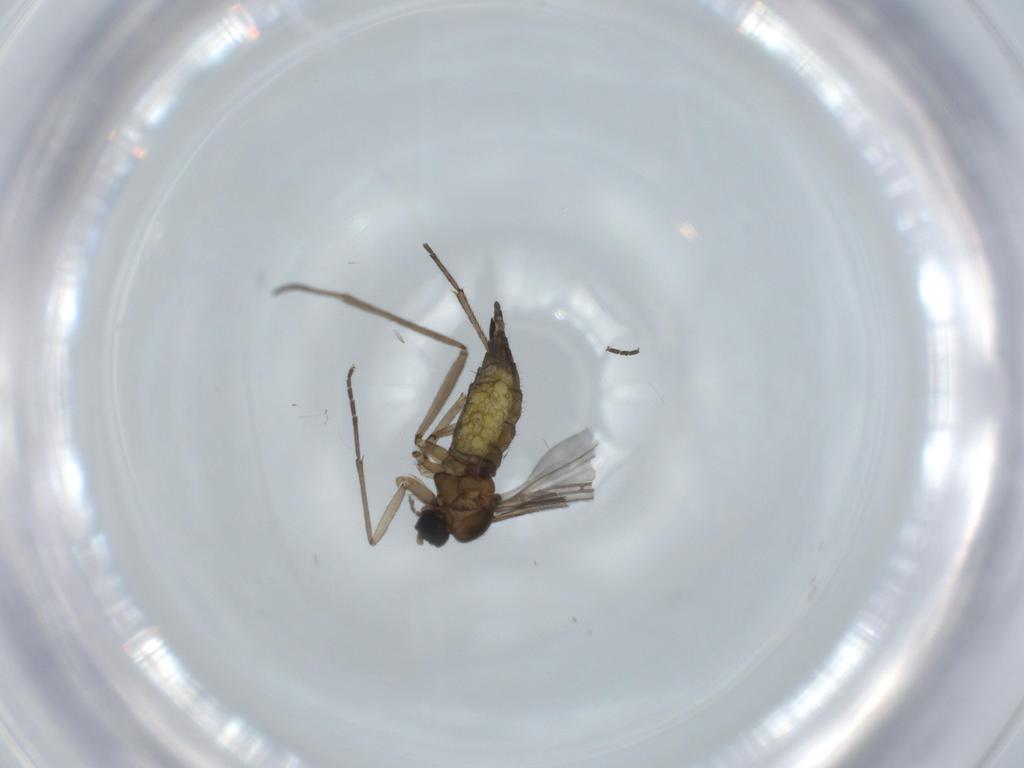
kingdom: Animalia
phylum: Arthropoda
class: Insecta
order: Diptera
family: Sciaridae
